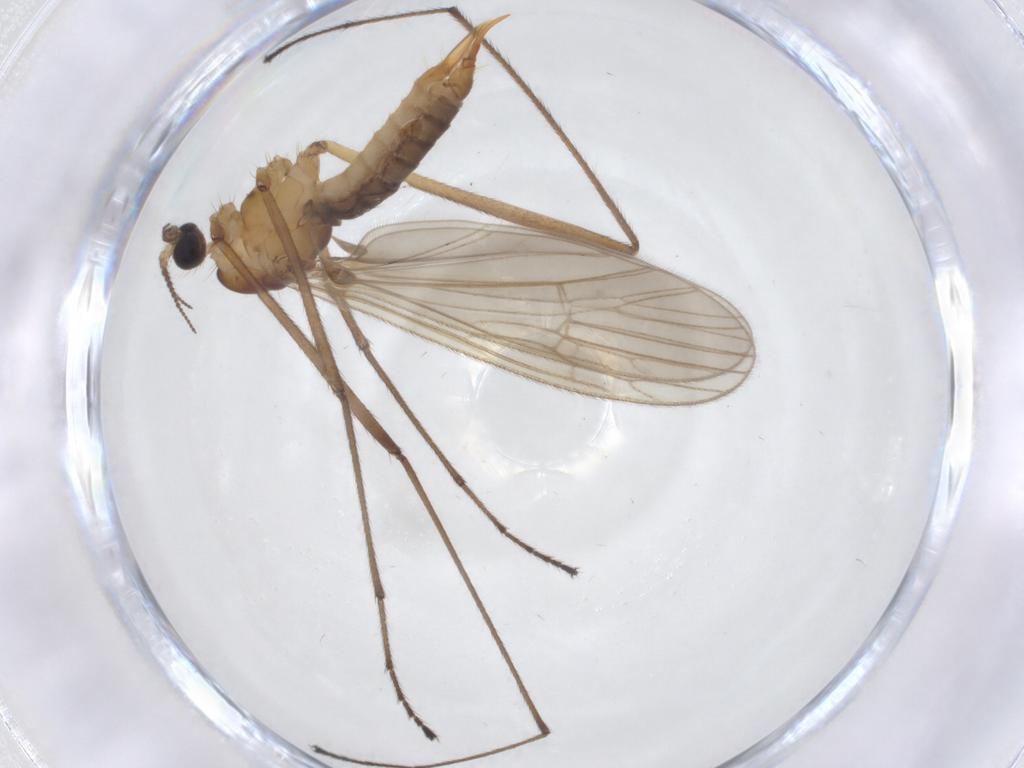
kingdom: Animalia
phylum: Arthropoda
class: Insecta
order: Diptera
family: Limoniidae
